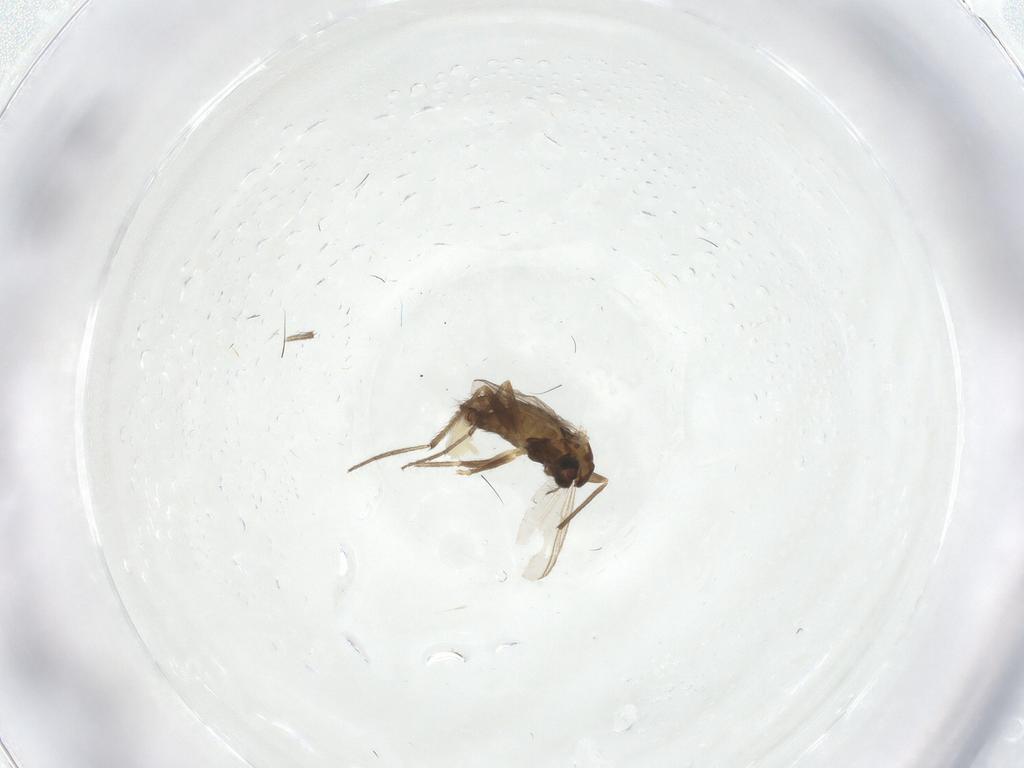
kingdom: Animalia
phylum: Arthropoda
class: Insecta
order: Diptera
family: Chironomidae
